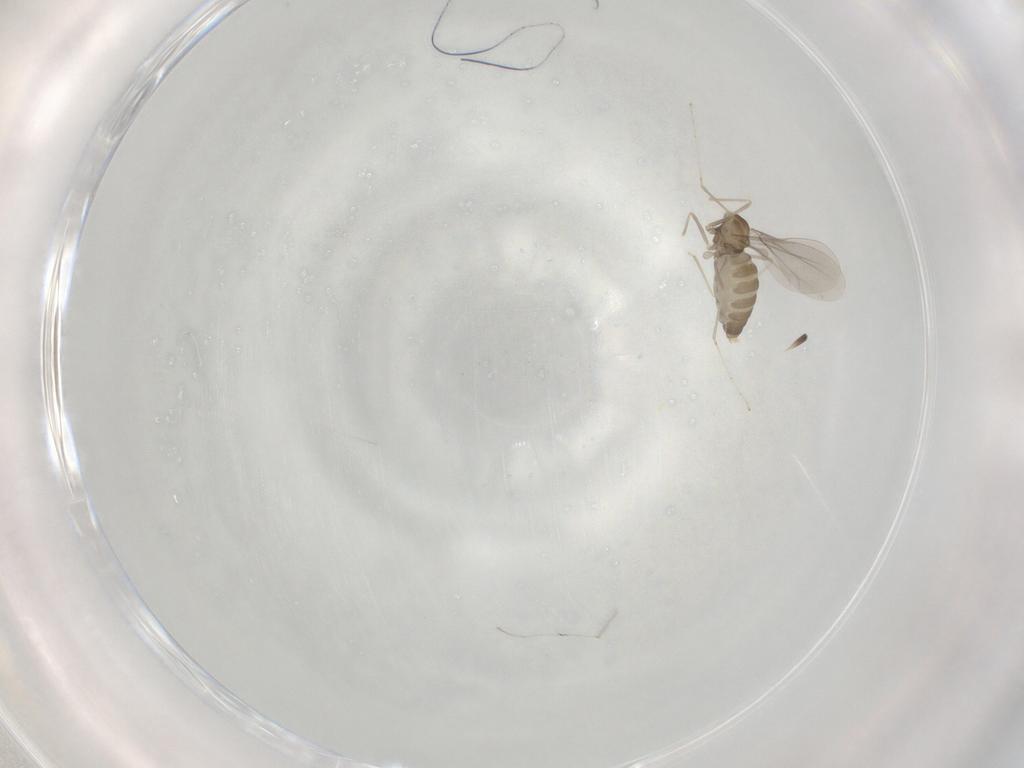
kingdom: Animalia
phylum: Arthropoda
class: Insecta
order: Diptera
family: Cecidomyiidae
